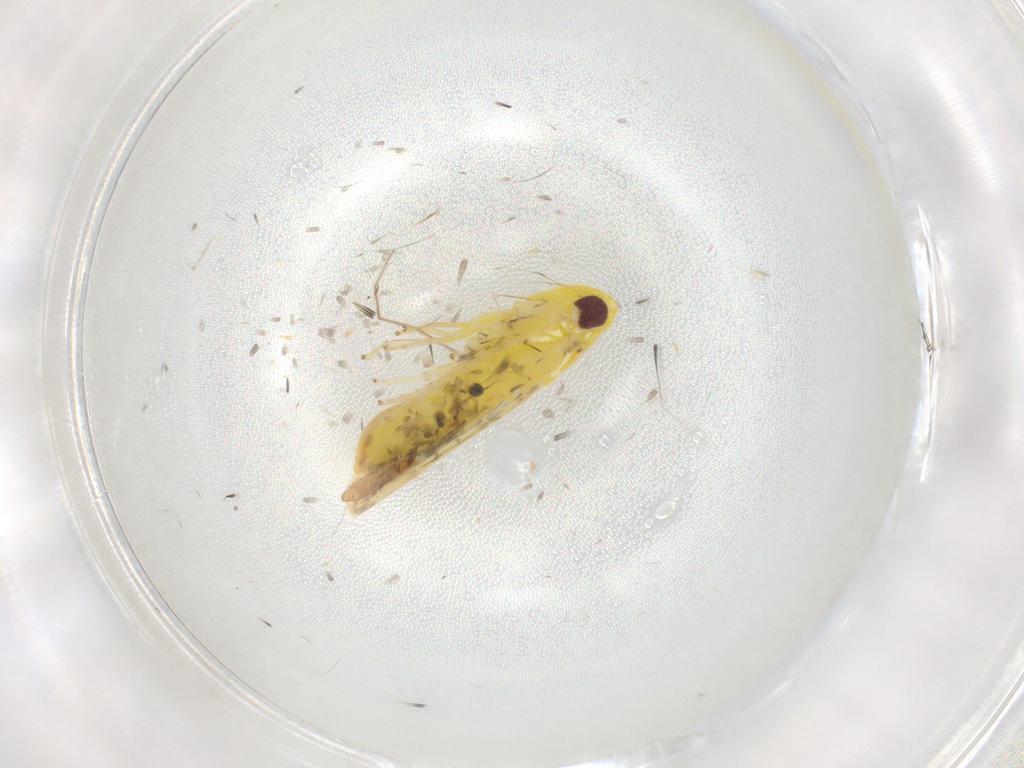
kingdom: Animalia
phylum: Arthropoda
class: Insecta
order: Hemiptera
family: Cicadellidae
